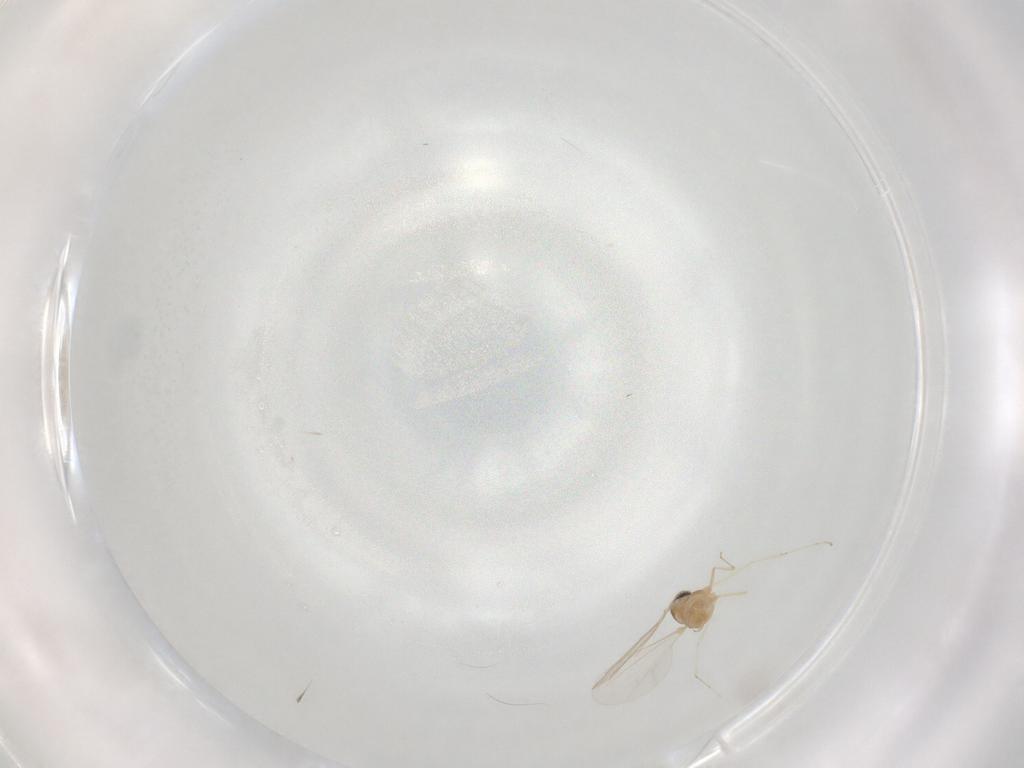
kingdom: Animalia
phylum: Arthropoda
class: Insecta
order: Diptera
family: Cecidomyiidae
